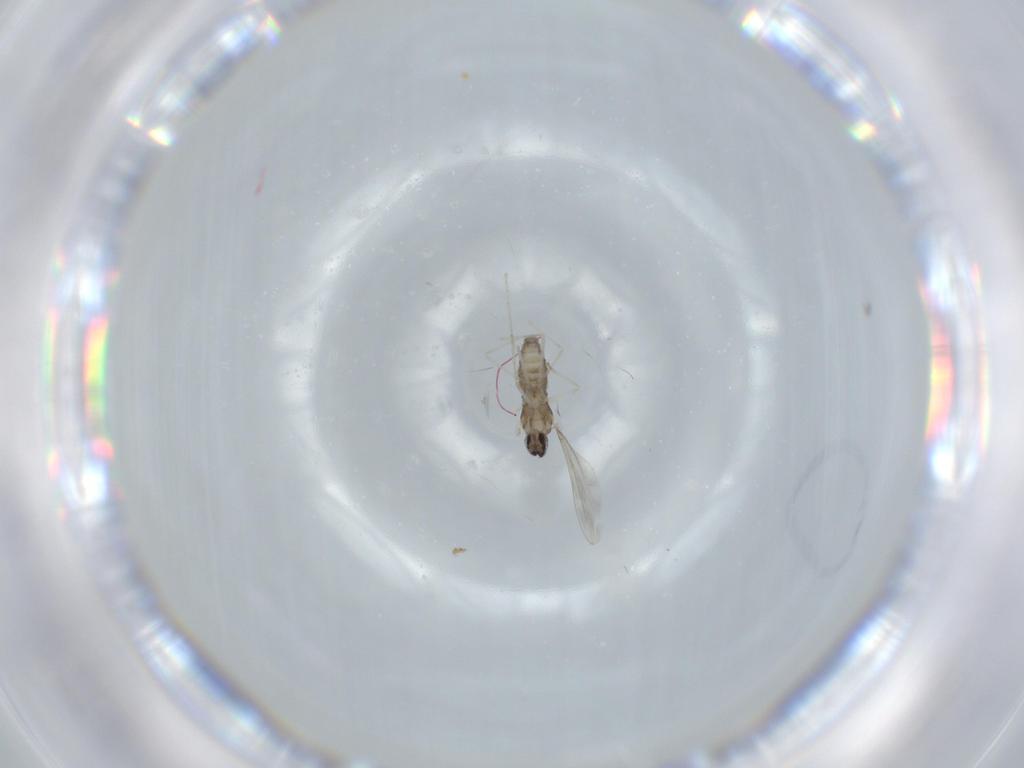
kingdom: Animalia
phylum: Arthropoda
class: Insecta
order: Diptera
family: Cecidomyiidae
